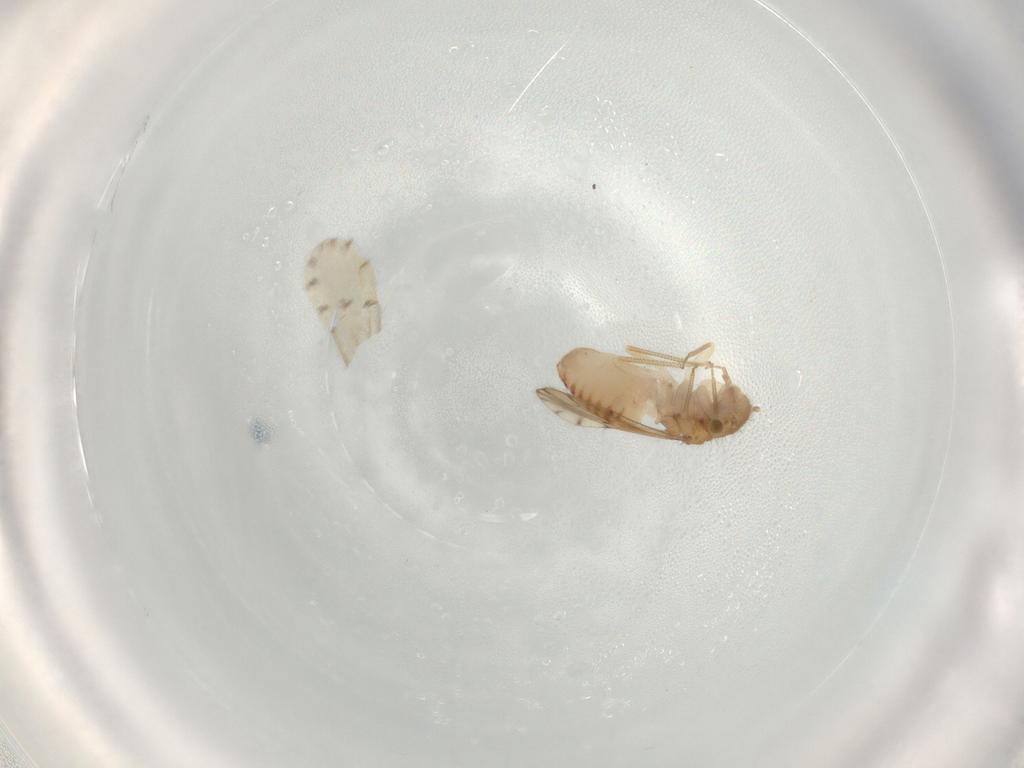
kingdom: Animalia
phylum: Arthropoda
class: Insecta
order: Psocodea
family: Ectopsocidae
